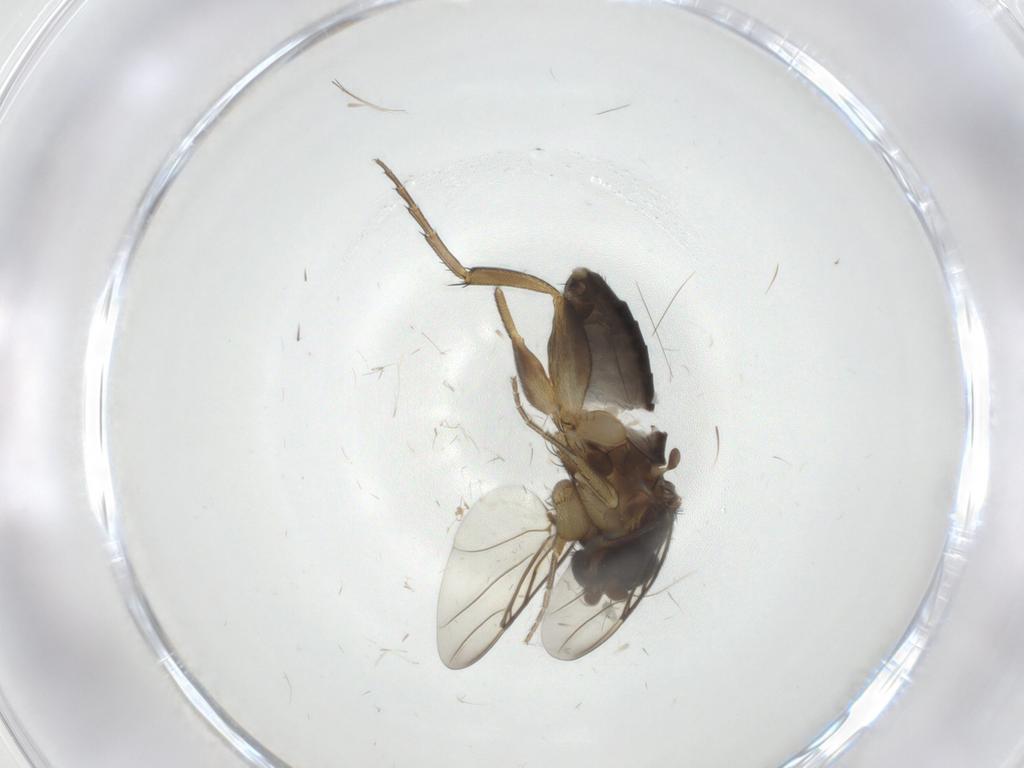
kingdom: Animalia
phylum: Arthropoda
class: Insecta
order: Diptera
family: Phoridae
